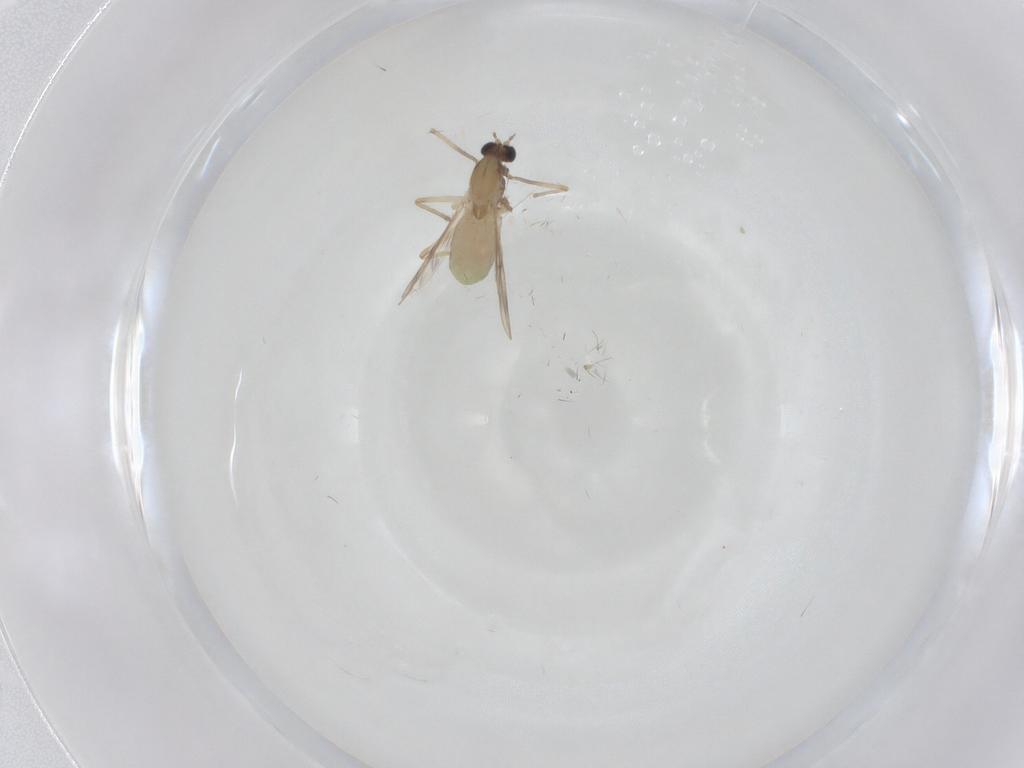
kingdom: Animalia
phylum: Arthropoda
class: Insecta
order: Diptera
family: Chironomidae
